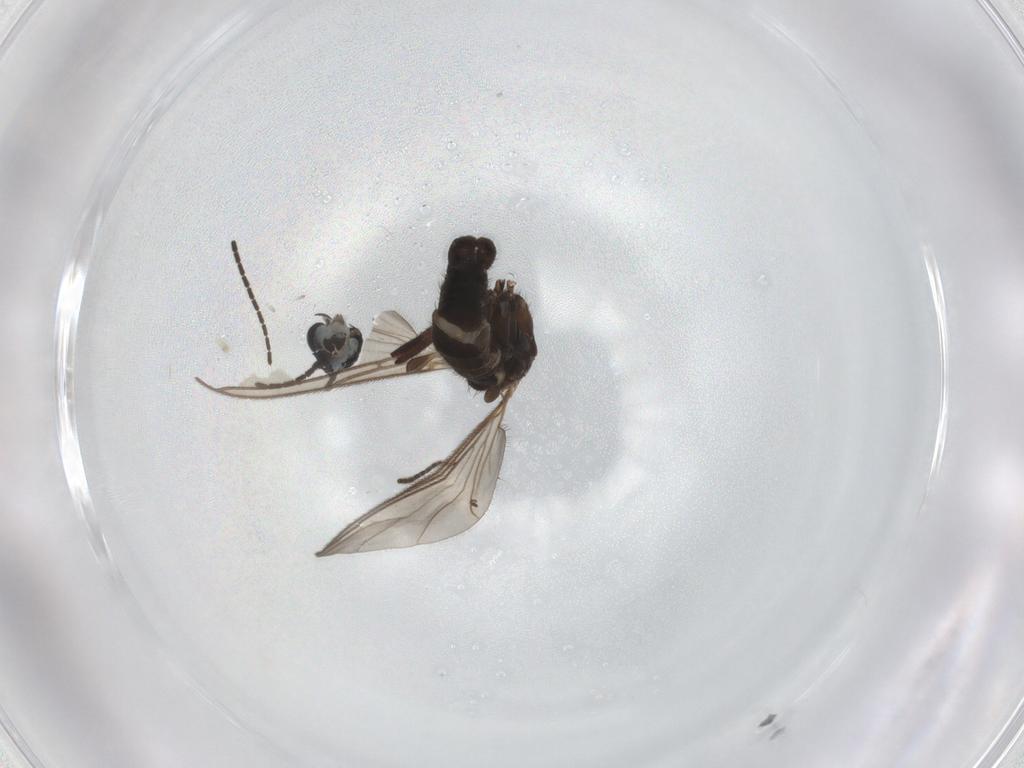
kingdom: Animalia
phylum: Arthropoda
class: Insecta
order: Diptera
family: Sciaridae
